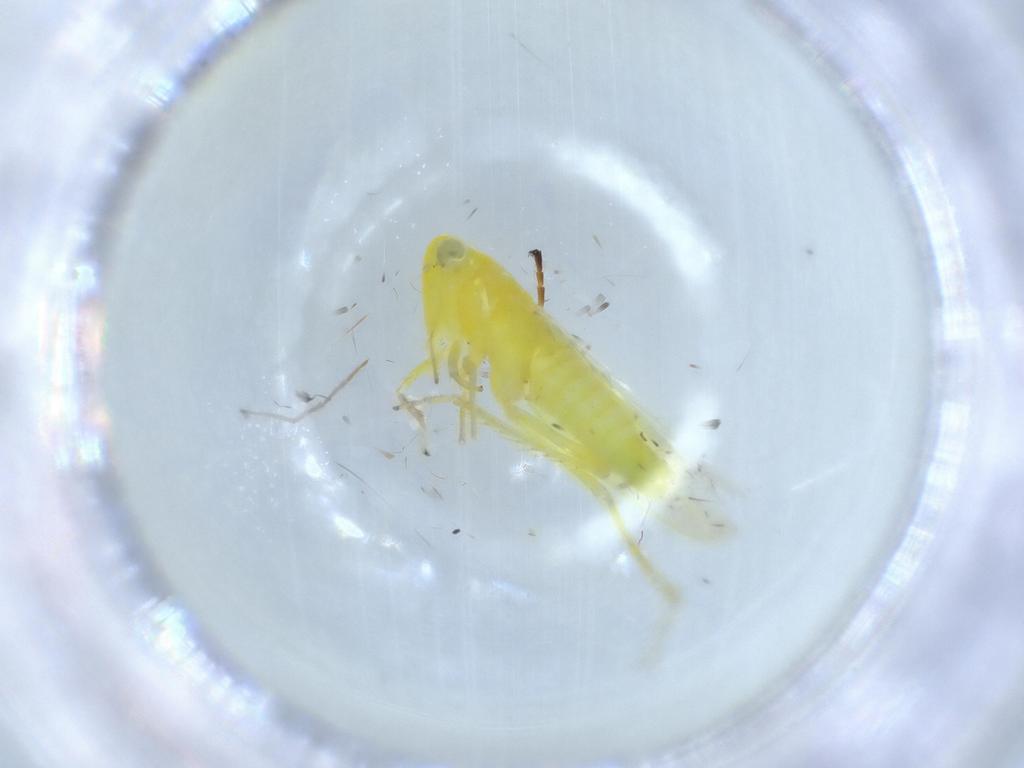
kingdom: Animalia
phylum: Arthropoda
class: Insecta
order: Hemiptera
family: Cicadellidae
